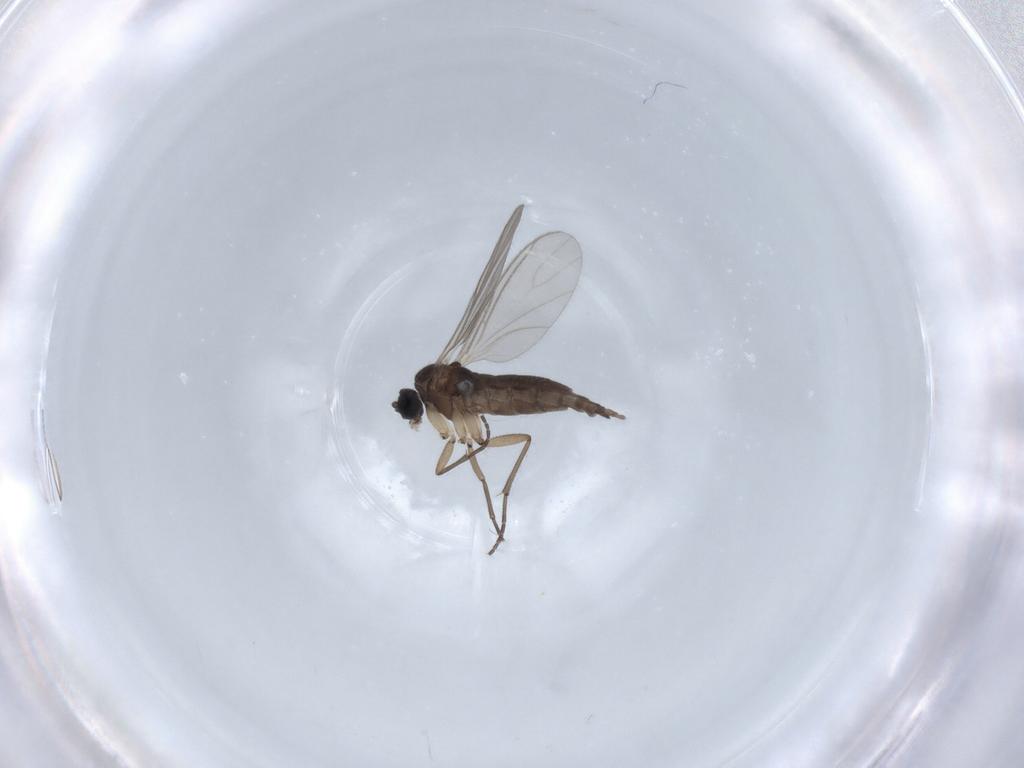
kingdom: Animalia
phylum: Arthropoda
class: Insecta
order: Diptera
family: Sciaridae
